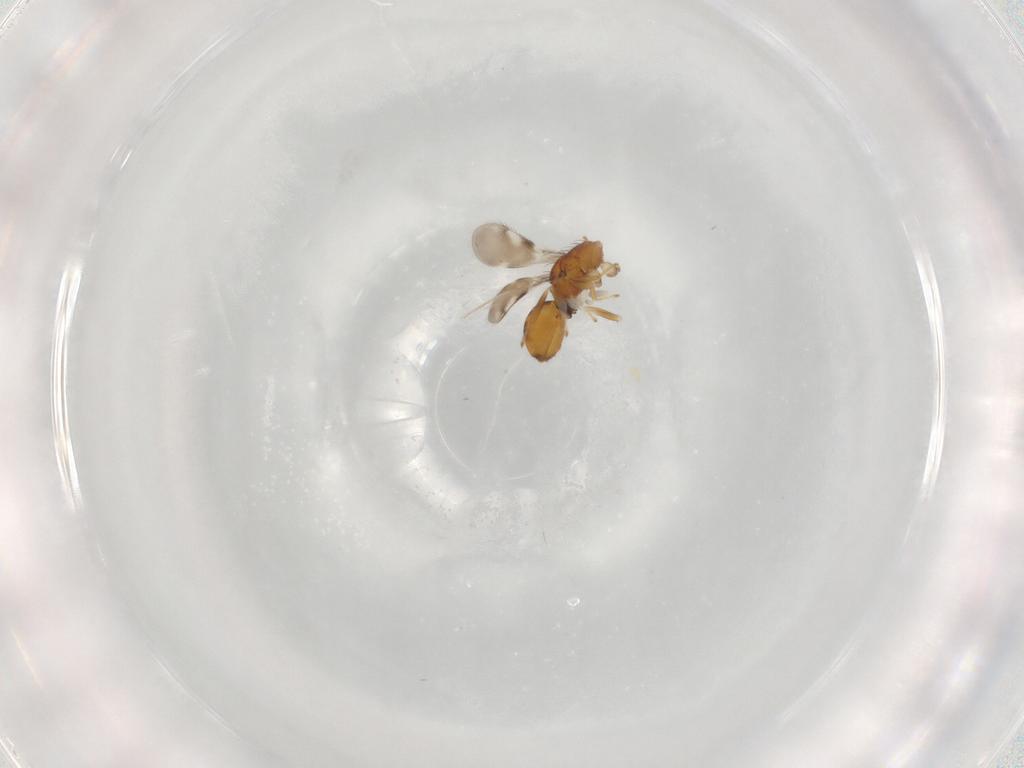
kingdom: Animalia
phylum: Arthropoda
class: Insecta
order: Hymenoptera
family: Eulophidae
